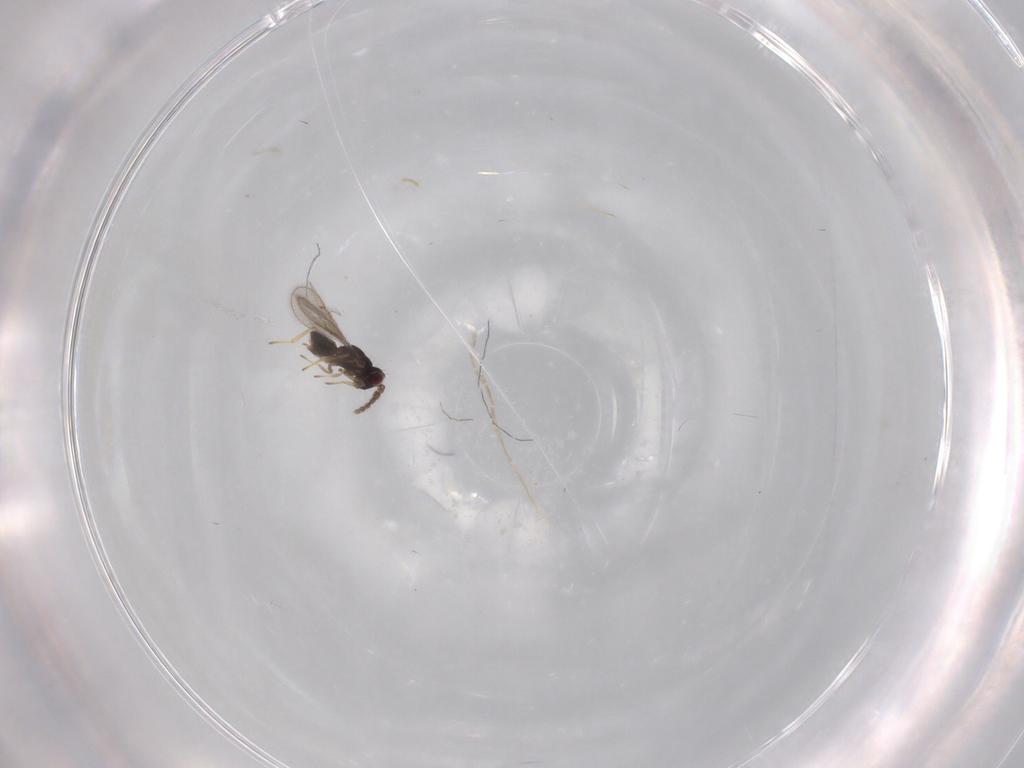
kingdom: Animalia
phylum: Arthropoda
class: Insecta
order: Hymenoptera
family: Eulophidae
